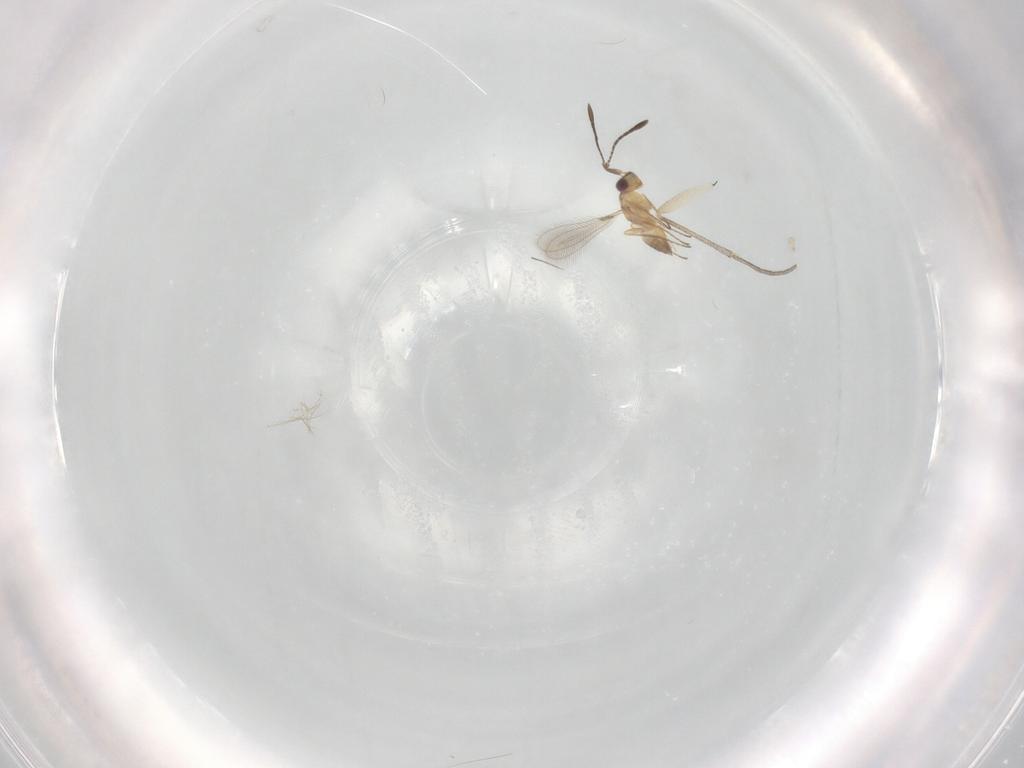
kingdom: Animalia
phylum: Arthropoda
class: Insecta
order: Hymenoptera
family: Mymaridae
